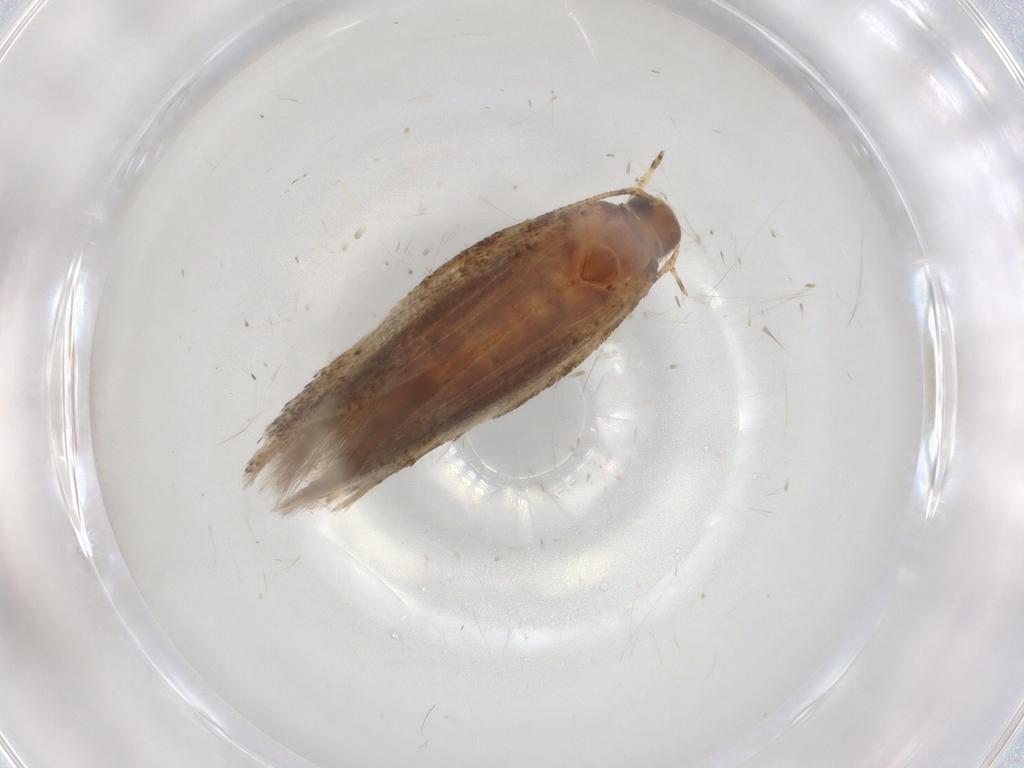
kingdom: Animalia
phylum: Arthropoda
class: Insecta
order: Lepidoptera
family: Gelechiidae
